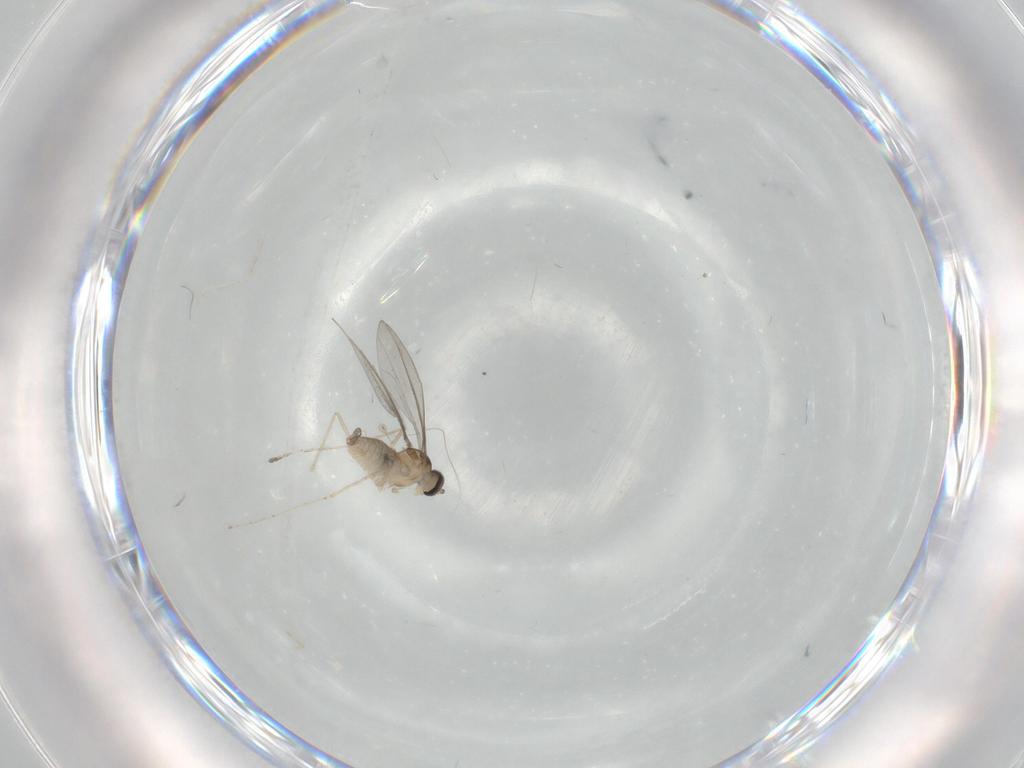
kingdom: Animalia
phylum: Arthropoda
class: Insecta
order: Diptera
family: Cecidomyiidae
